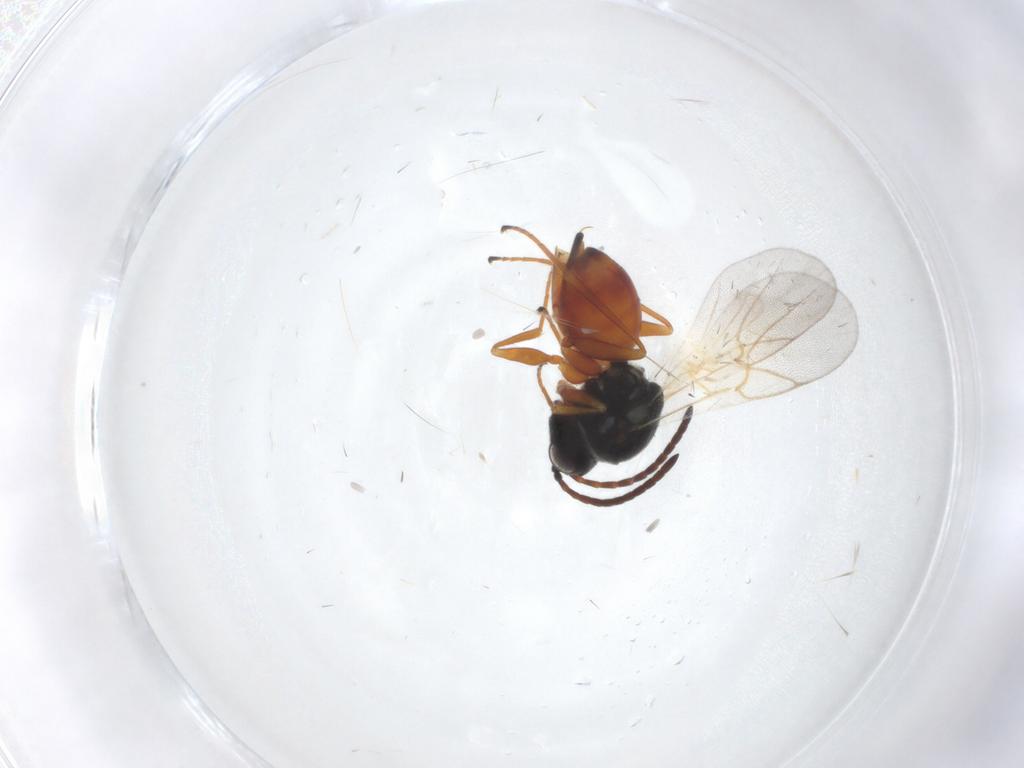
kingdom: Animalia
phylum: Arthropoda
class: Insecta
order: Hymenoptera
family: Cynipidae
